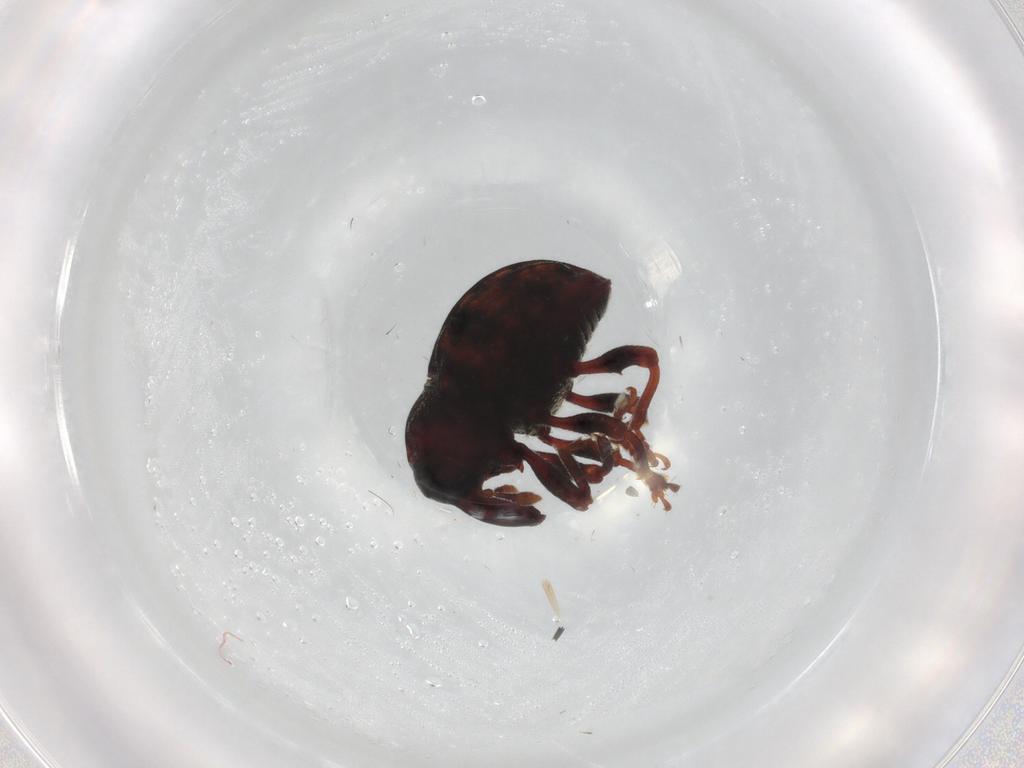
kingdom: Animalia
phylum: Arthropoda
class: Insecta
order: Coleoptera
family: Curculionidae
